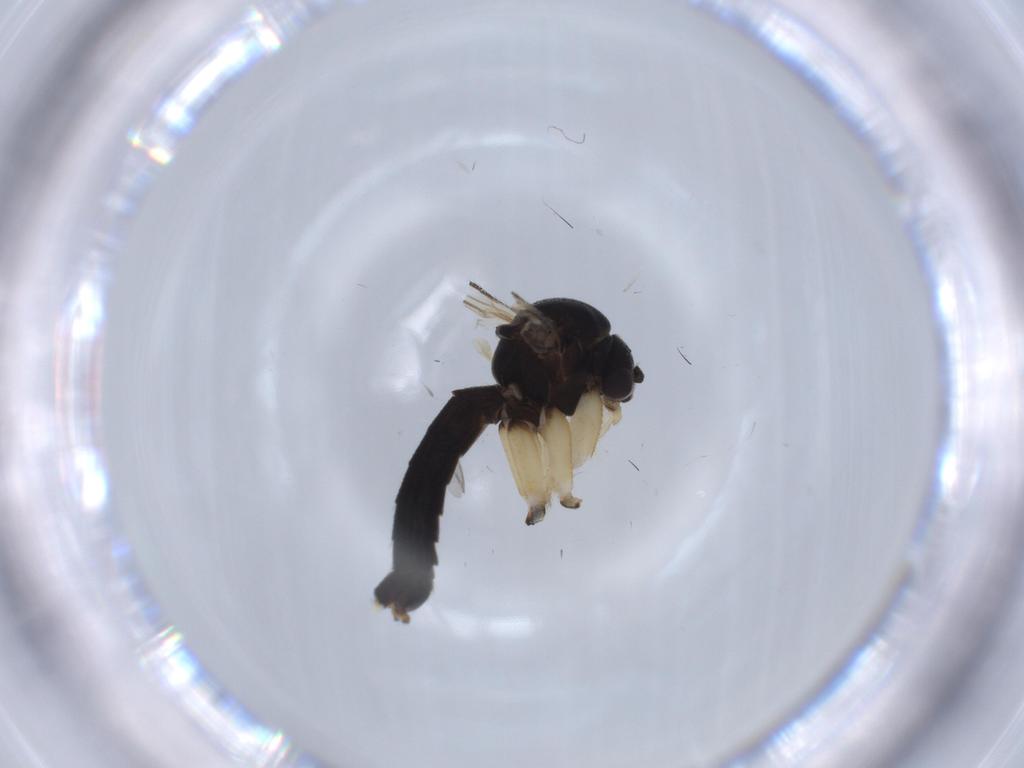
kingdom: Animalia
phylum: Arthropoda
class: Insecta
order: Diptera
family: Mycetophilidae
